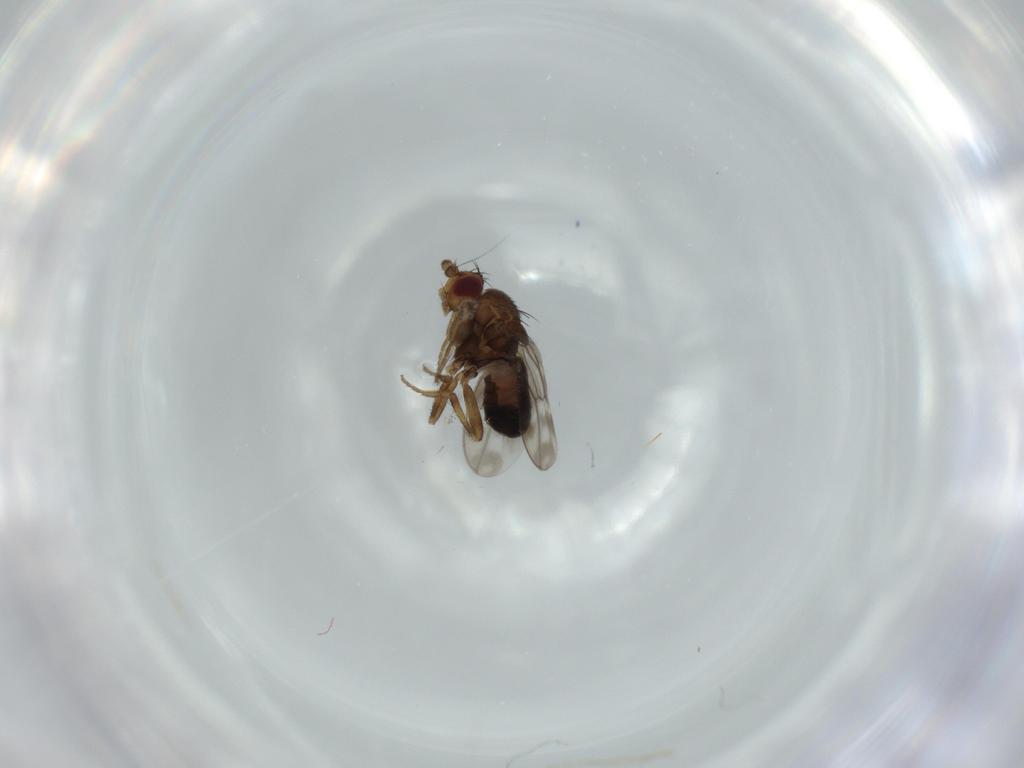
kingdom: Animalia
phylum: Arthropoda
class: Insecta
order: Diptera
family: Sphaeroceridae
